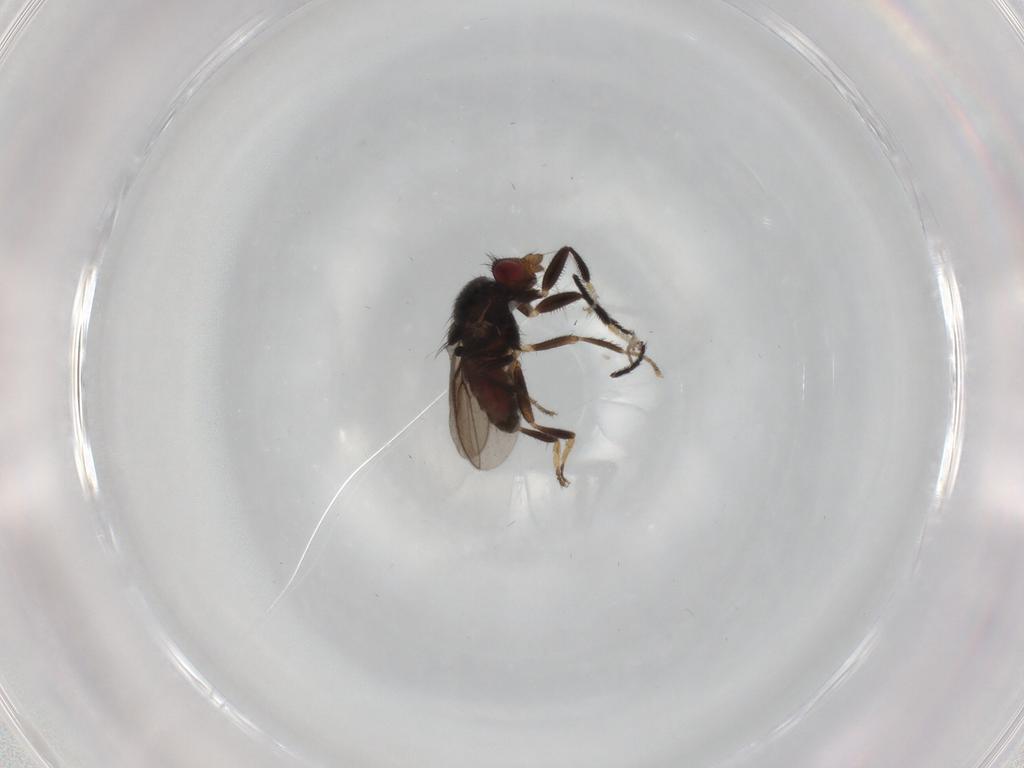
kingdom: Animalia
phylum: Arthropoda
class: Insecta
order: Diptera
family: Sphaeroceridae
